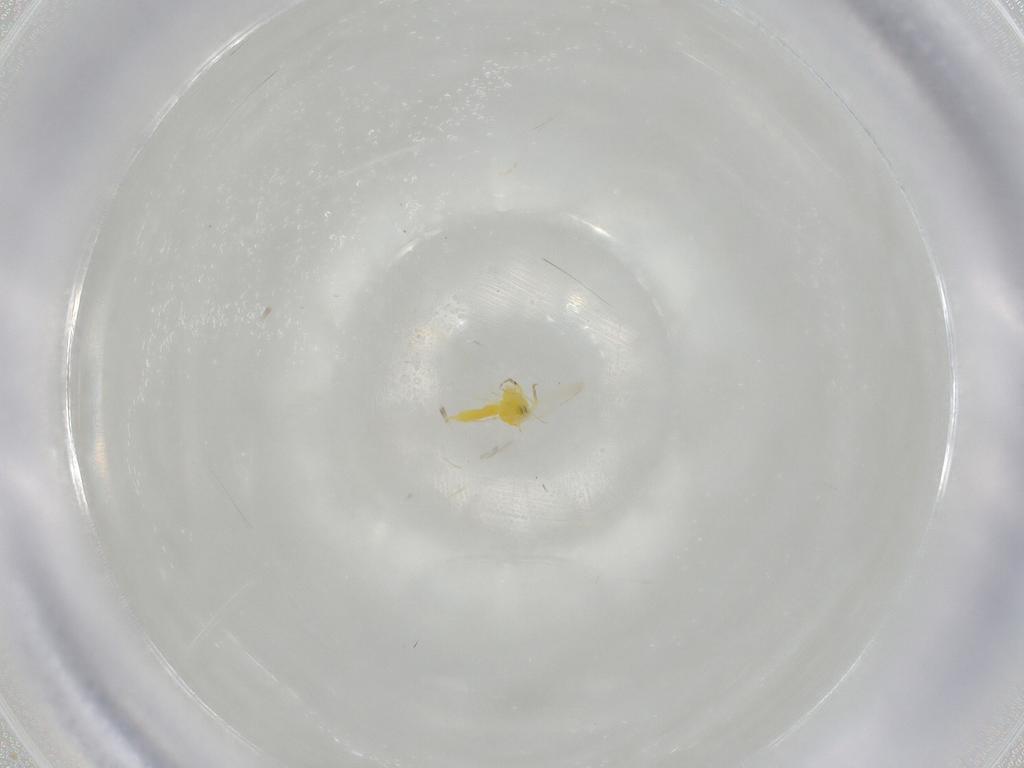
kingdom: Animalia
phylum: Arthropoda
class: Insecta
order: Hemiptera
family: Aleyrodidae
